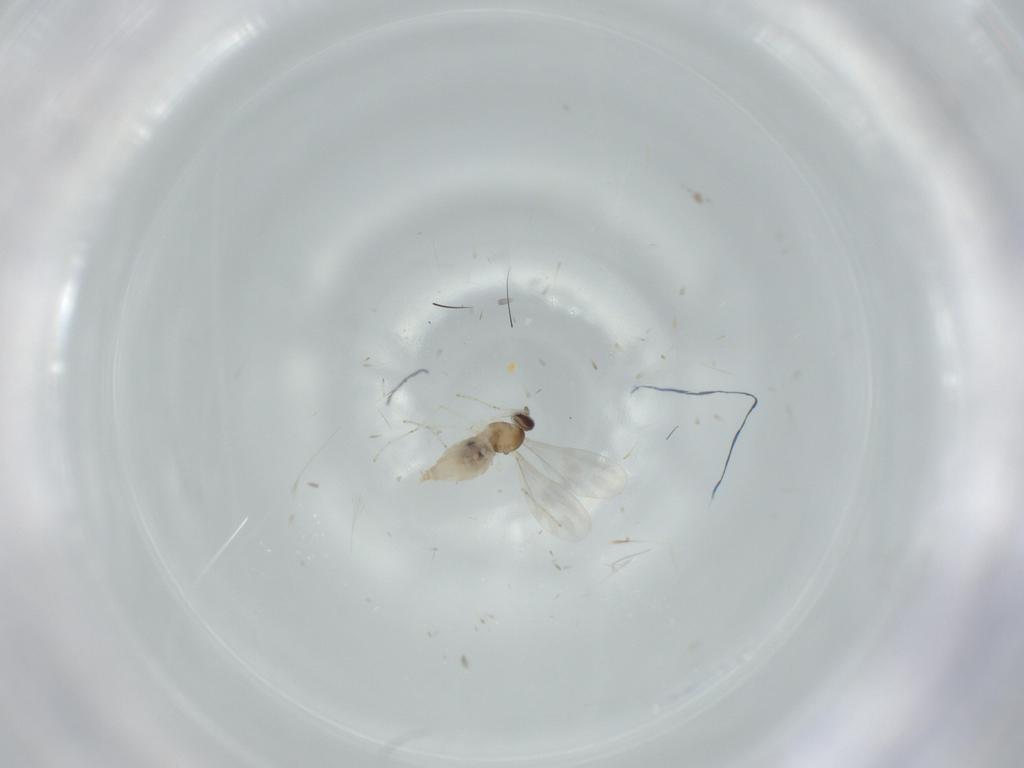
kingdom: Animalia
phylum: Arthropoda
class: Insecta
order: Diptera
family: Cecidomyiidae
